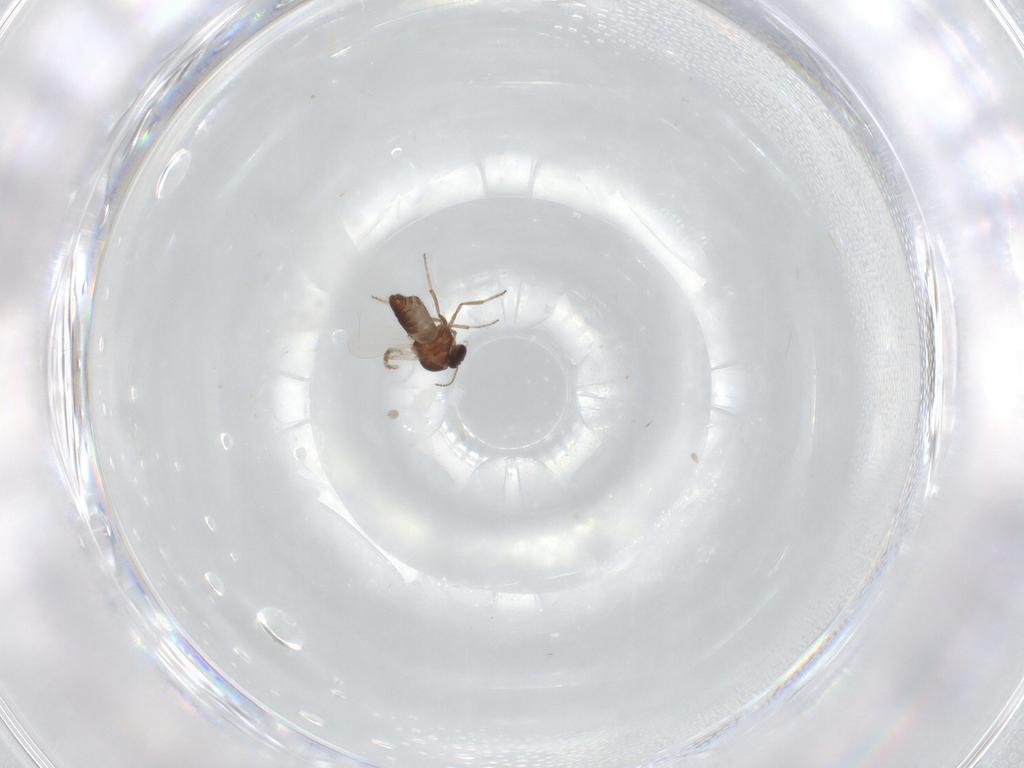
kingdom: Animalia
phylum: Arthropoda
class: Insecta
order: Diptera
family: Ceratopogonidae
